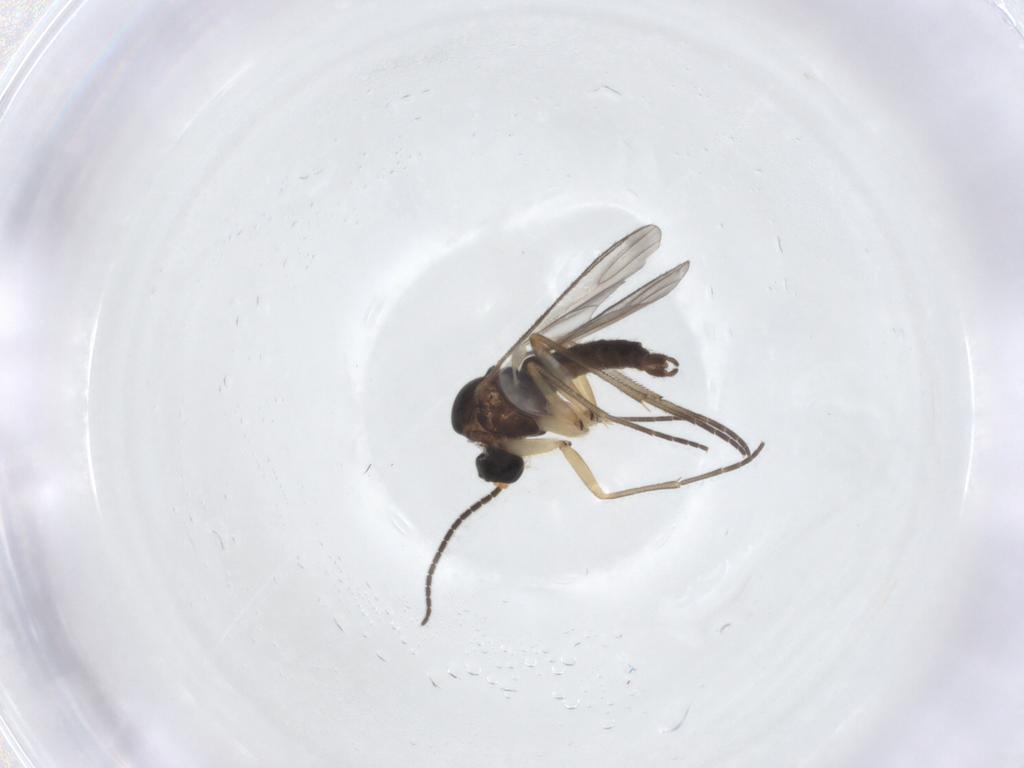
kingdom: Animalia
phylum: Arthropoda
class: Insecta
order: Diptera
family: Sciaridae
